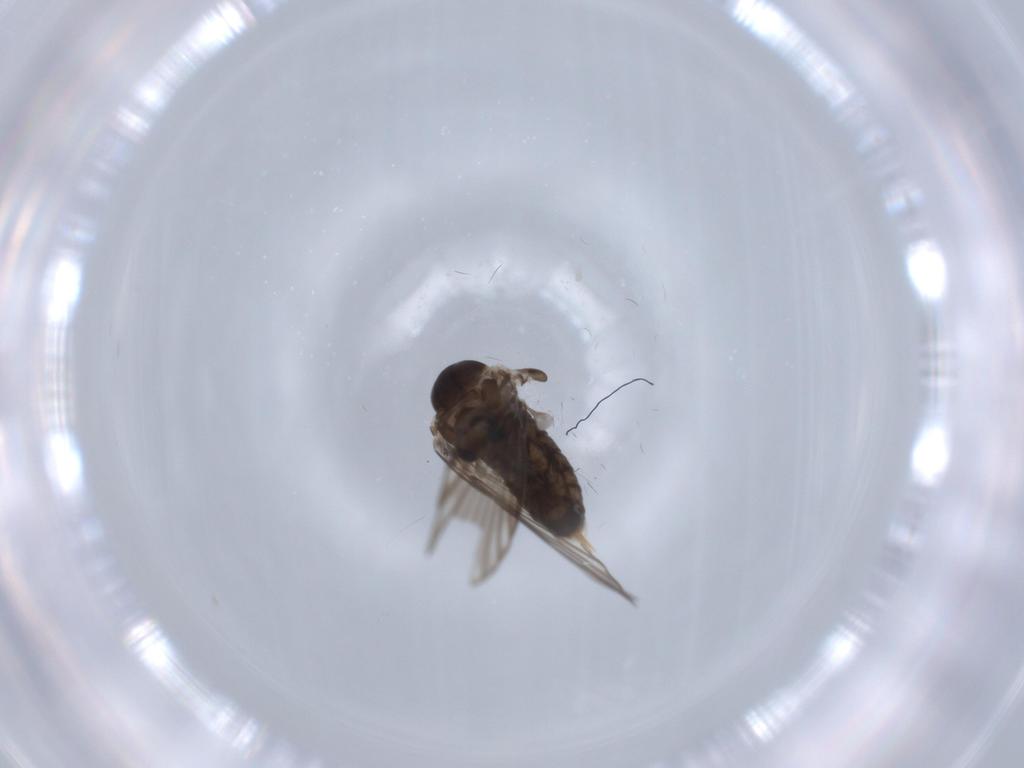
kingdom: Animalia
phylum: Arthropoda
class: Insecta
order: Diptera
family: Psychodidae
